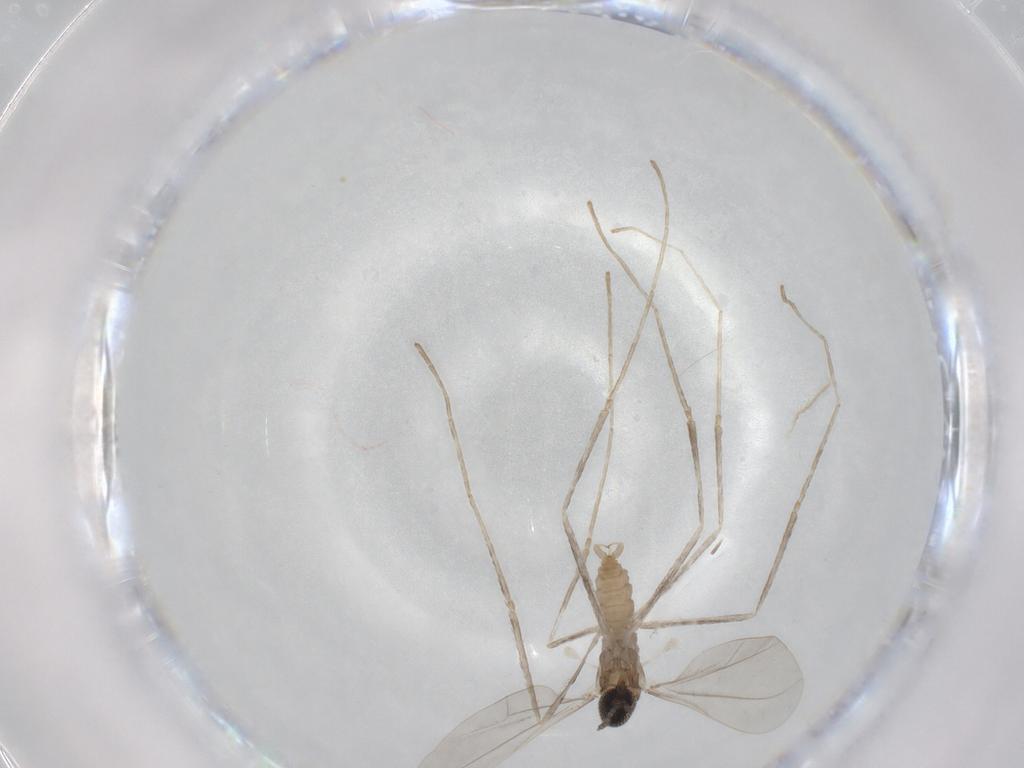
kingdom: Animalia
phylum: Arthropoda
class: Insecta
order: Diptera
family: Cecidomyiidae
